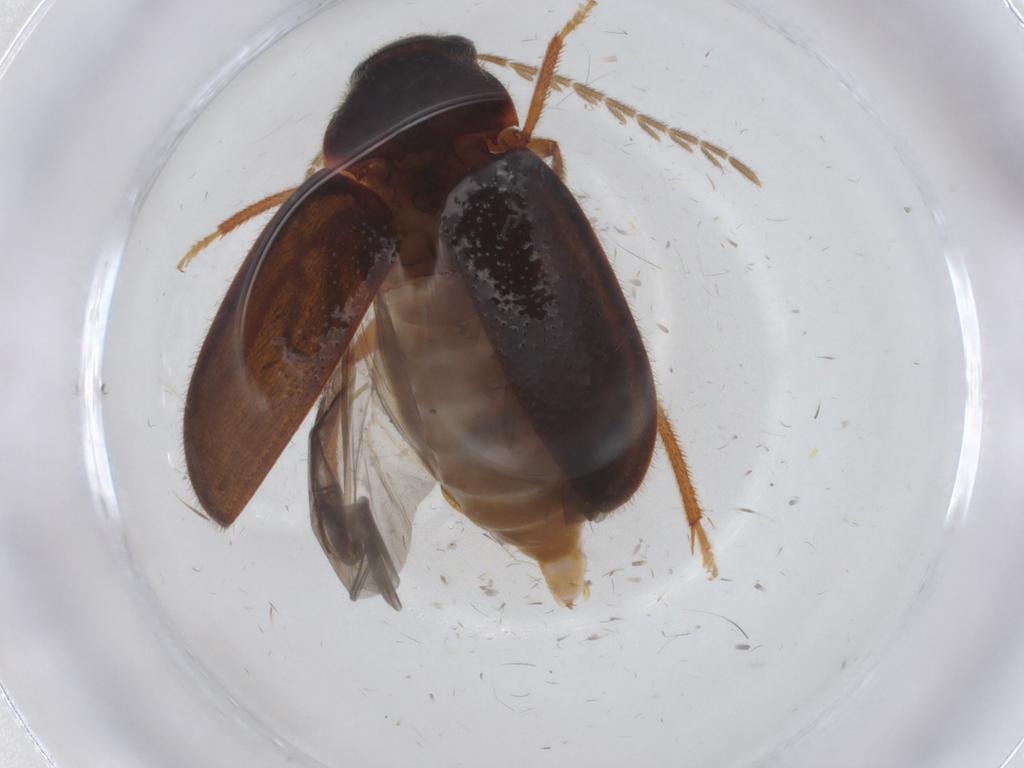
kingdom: Animalia
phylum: Arthropoda
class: Insecta
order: Coleoptera
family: Ptilodactylidae
